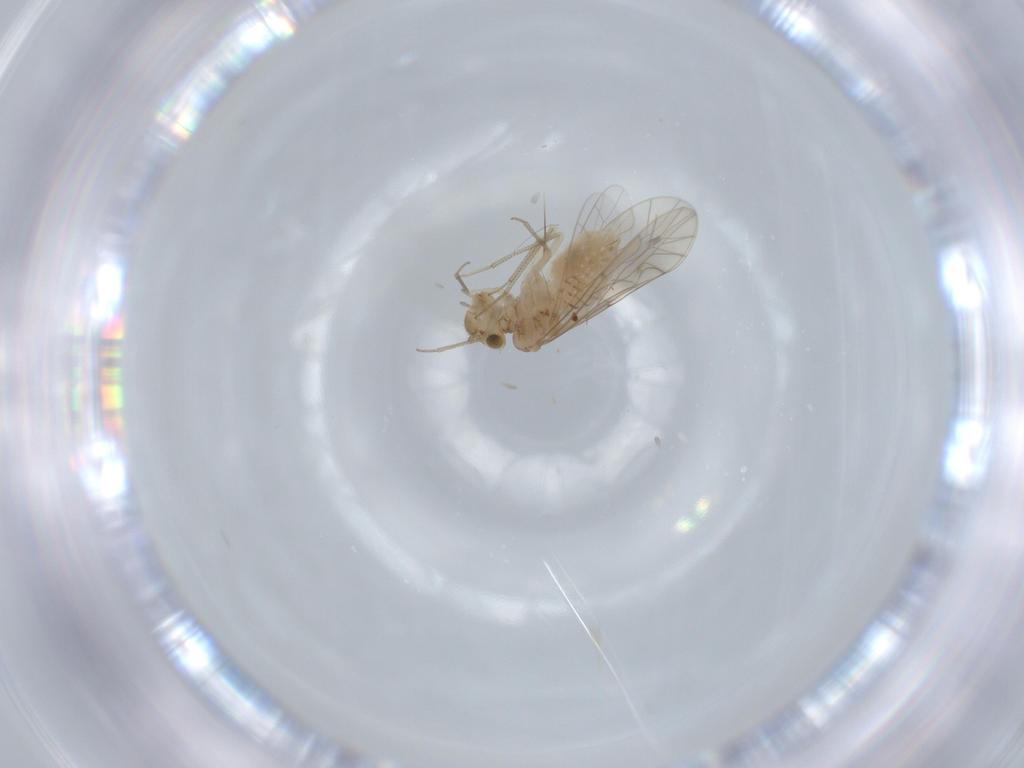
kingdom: Animalia
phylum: Arthropoda
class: Insecta
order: Psocodea
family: Lachesillidae
